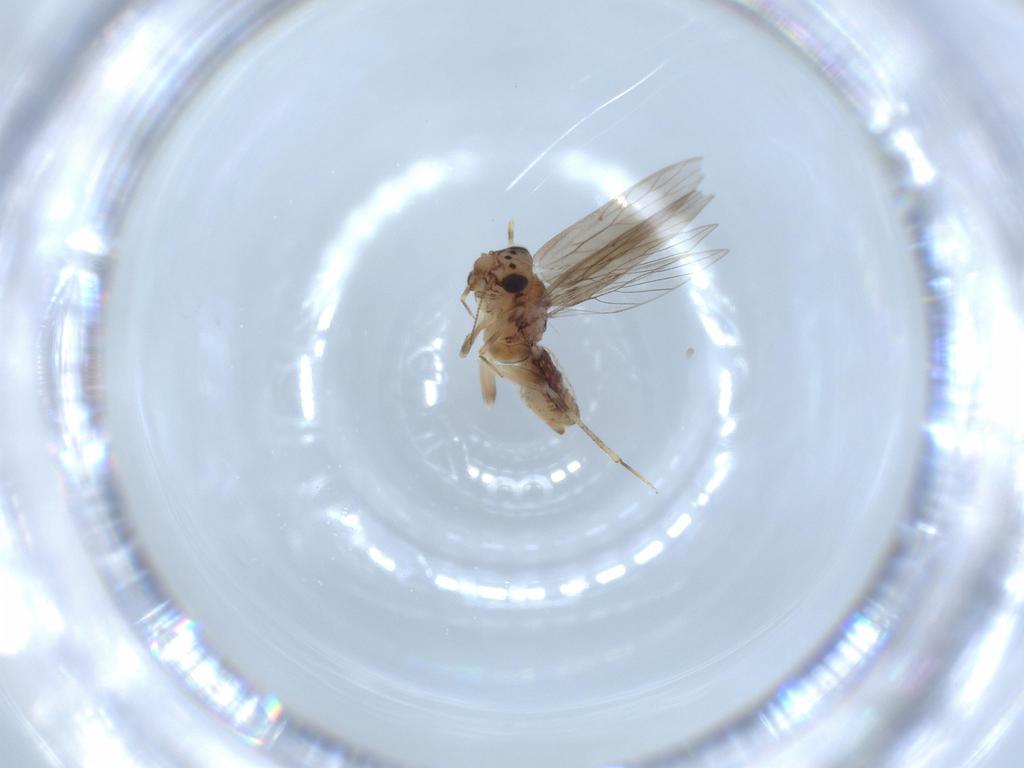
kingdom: Animalia
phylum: Arthropoda
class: Insecta
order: Psocodea
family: Lepidopsocidae
